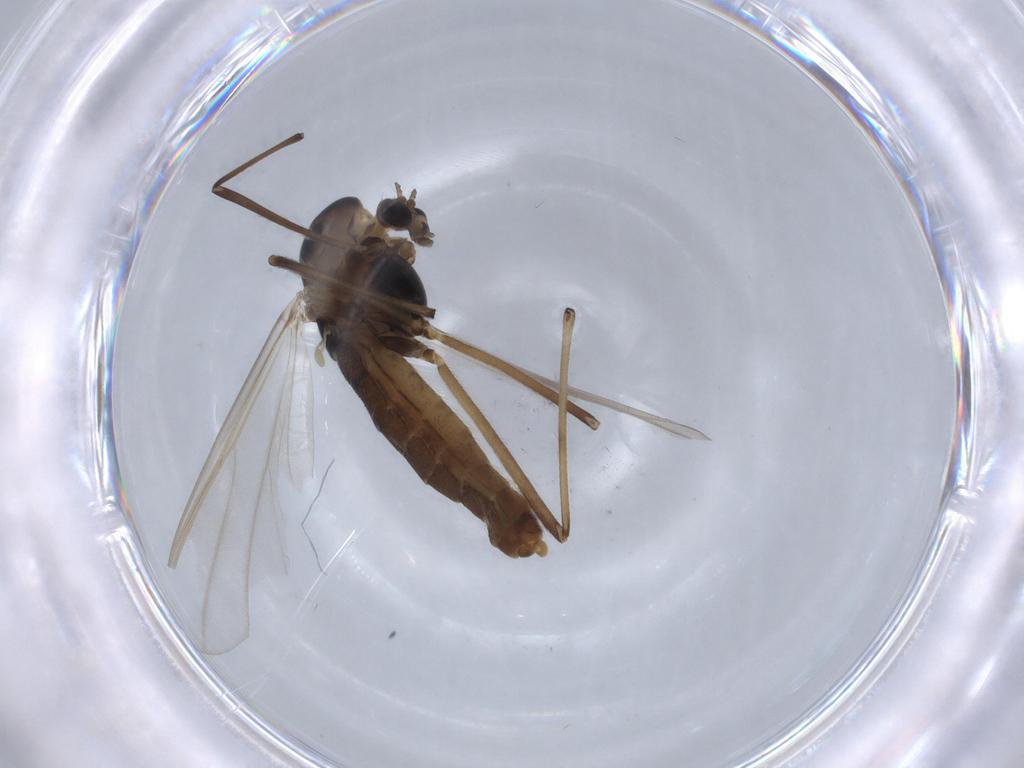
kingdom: Animalia
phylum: Arthropoda
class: Insecta
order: Diptera
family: Chironomidae
